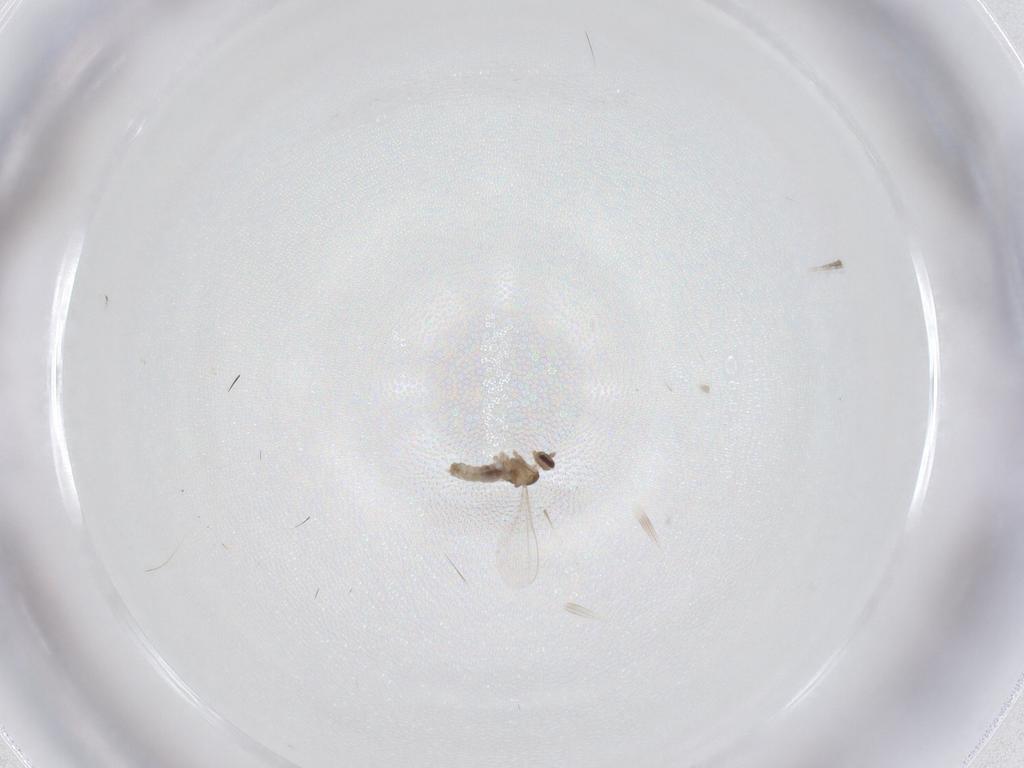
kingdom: Animalia
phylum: Arthropoda
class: Insecta
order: Diptera
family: Cecidomyiidae
